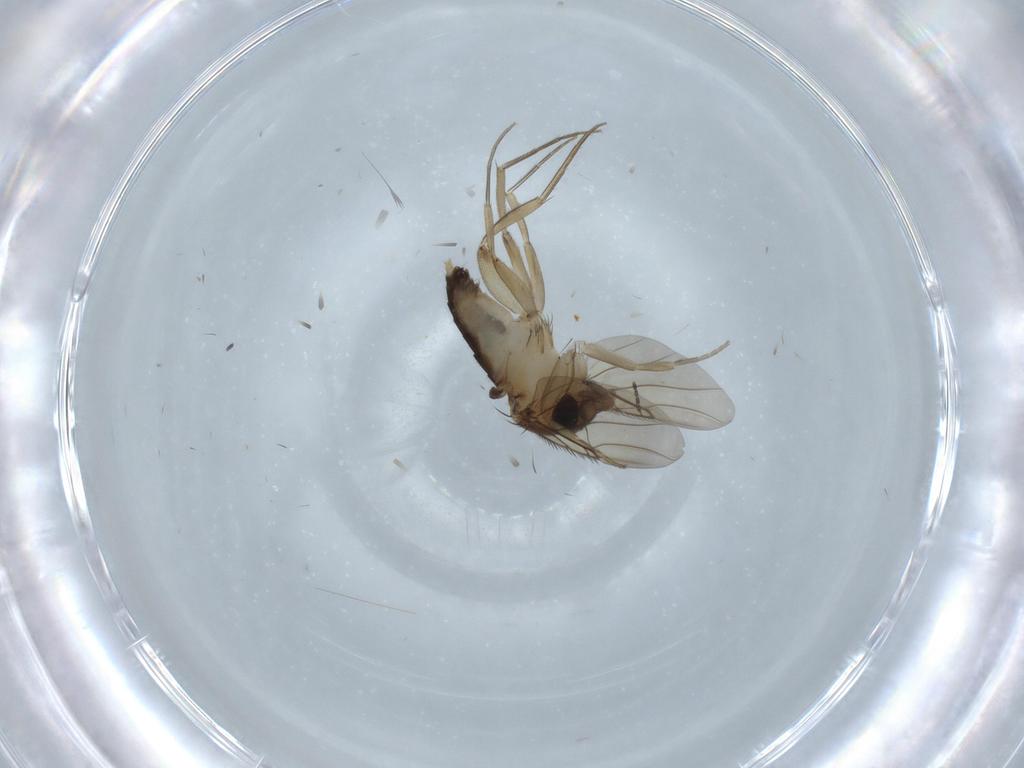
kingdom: Animalia
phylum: Arthropoda
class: Insecta
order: Diptera
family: Phoridae
